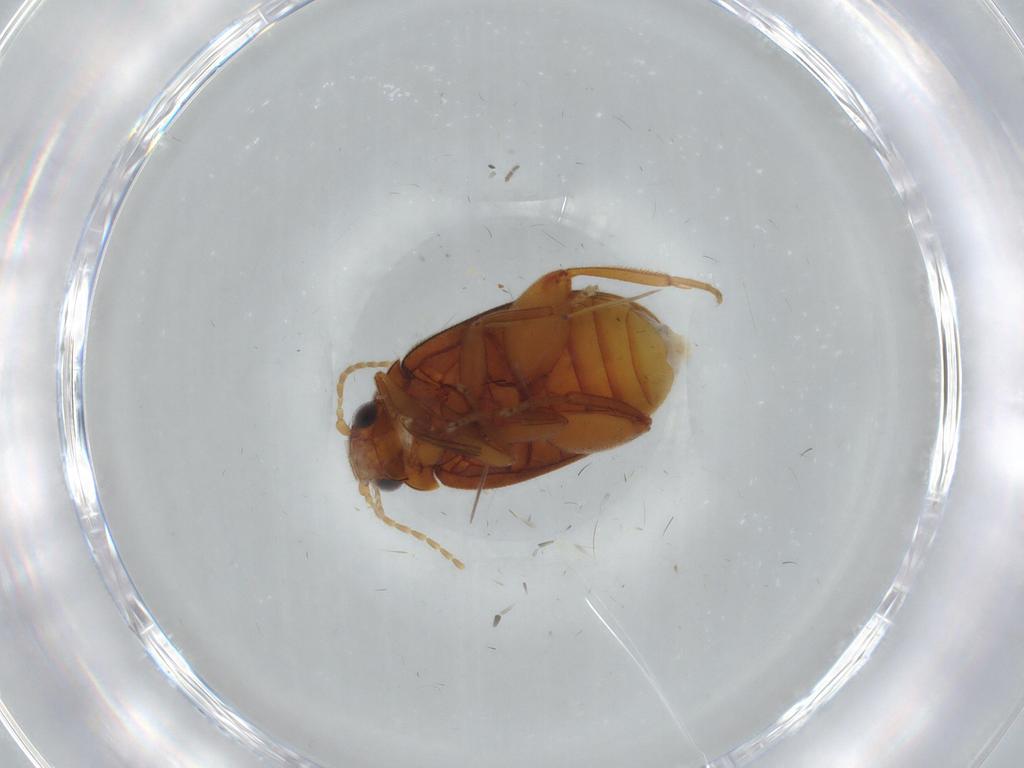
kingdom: Animalia
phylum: Arthropoda
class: Insecta
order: Coleoptera
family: Scirtidae
